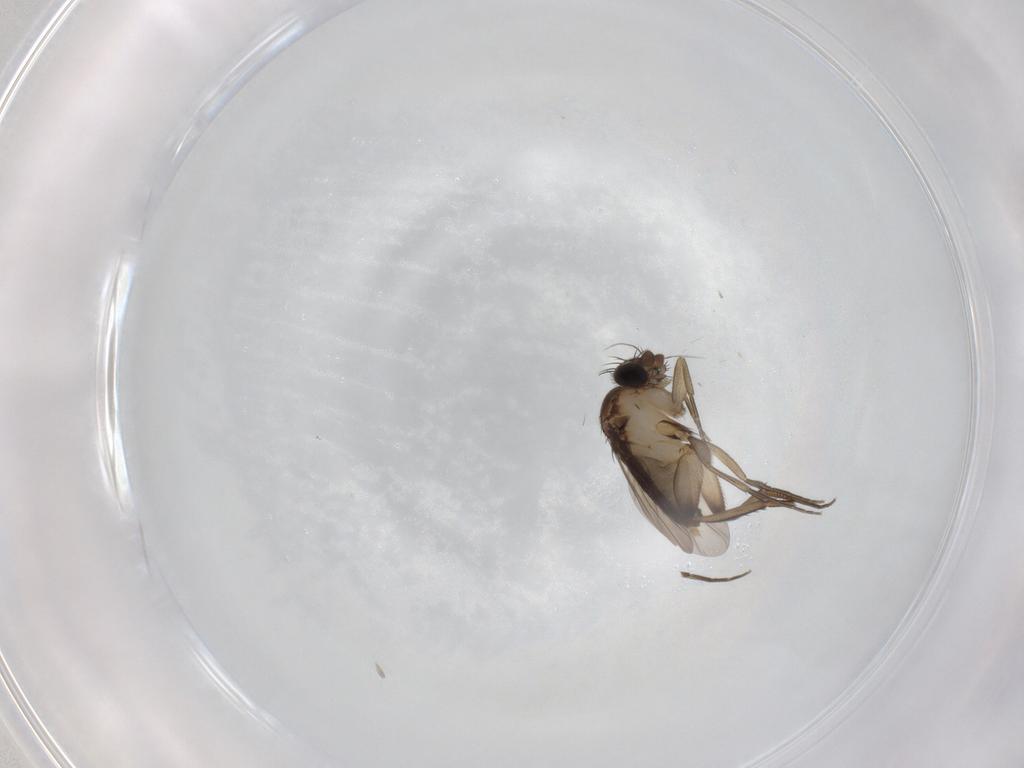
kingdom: Animalia
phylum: Arthropoda
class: Insecta
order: Diptera
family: Phoridae
